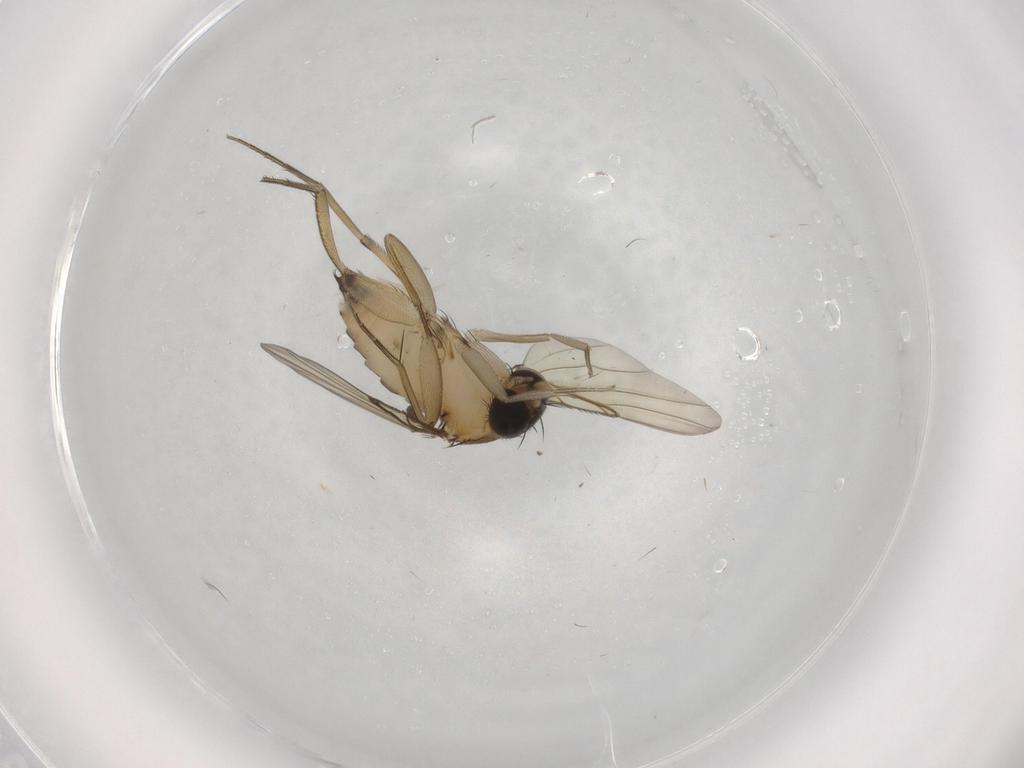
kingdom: Animalia
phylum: Arthropoda
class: Insecta
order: Diptera
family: Phoridae
